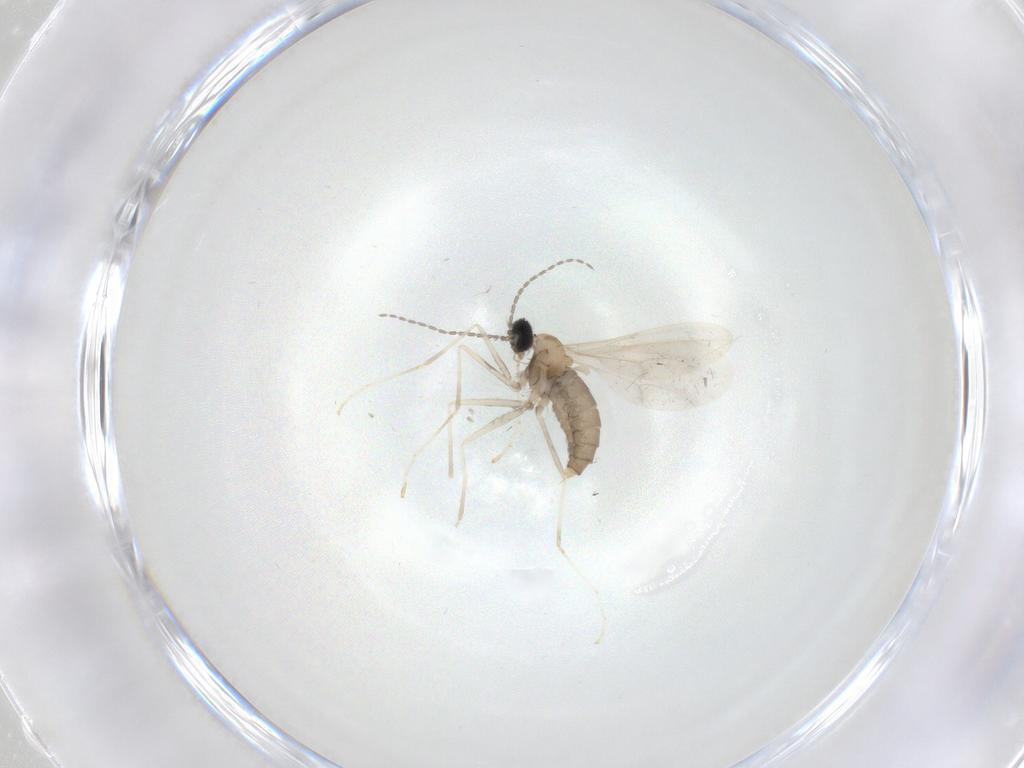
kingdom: Animalia
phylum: Arthropoda
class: Insecta
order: Diptera
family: Cecidomyiidae
